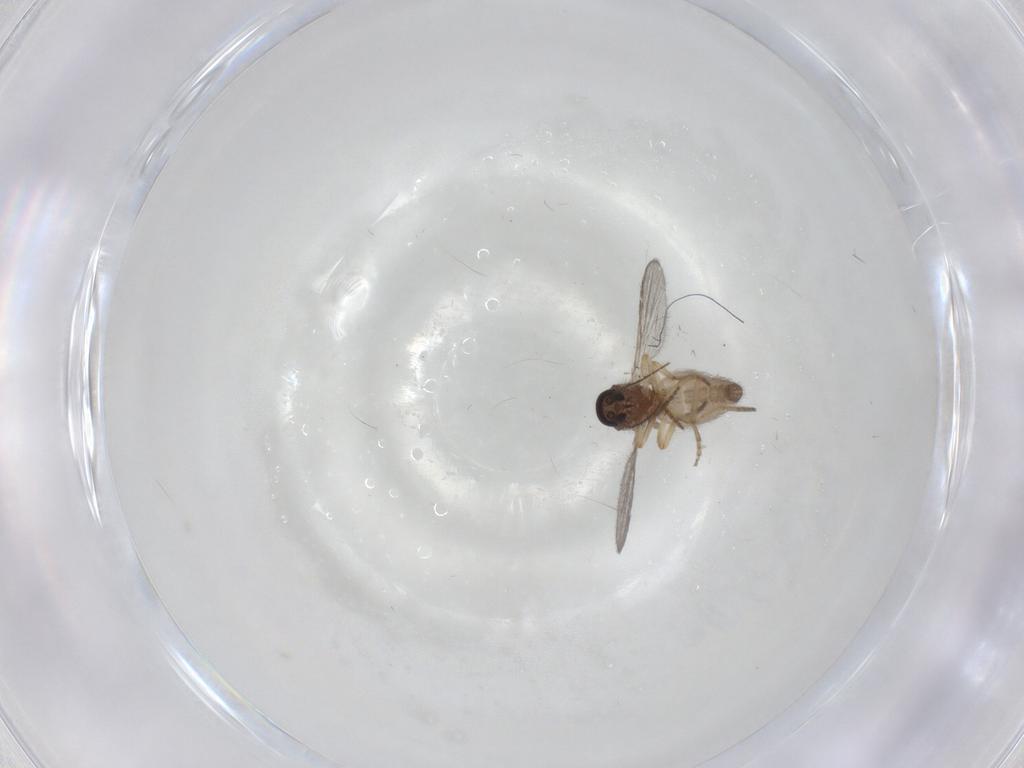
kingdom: Animalia
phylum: Arthropoda
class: Insecta
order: Diptera
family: Ceratopogonidae
